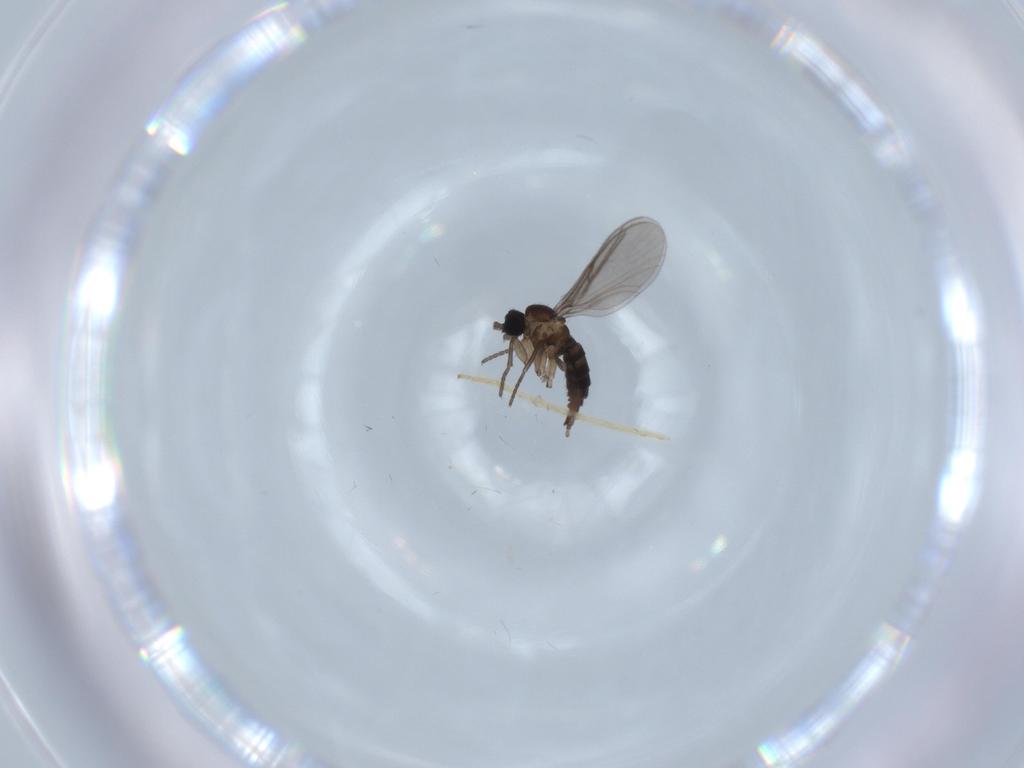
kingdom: Animalia
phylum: Arthropoda
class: Insecta
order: Diptera
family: Chironomidae
